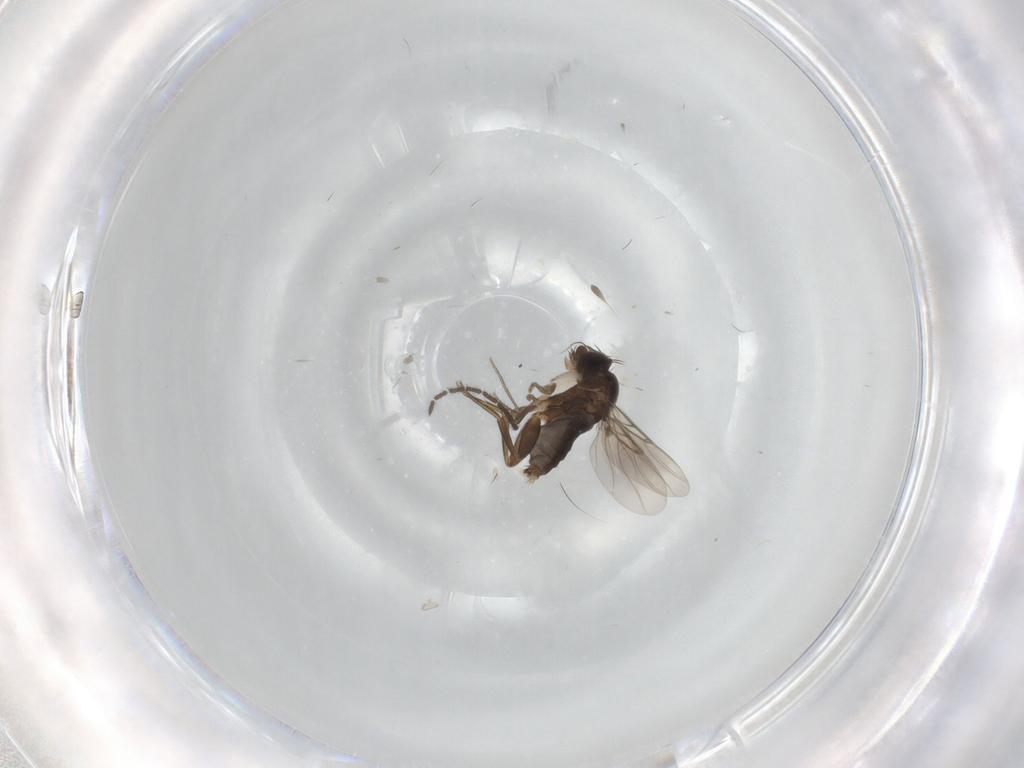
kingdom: Animalia
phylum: Arthropoda
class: Insecta
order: Diptera
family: Phoridae
